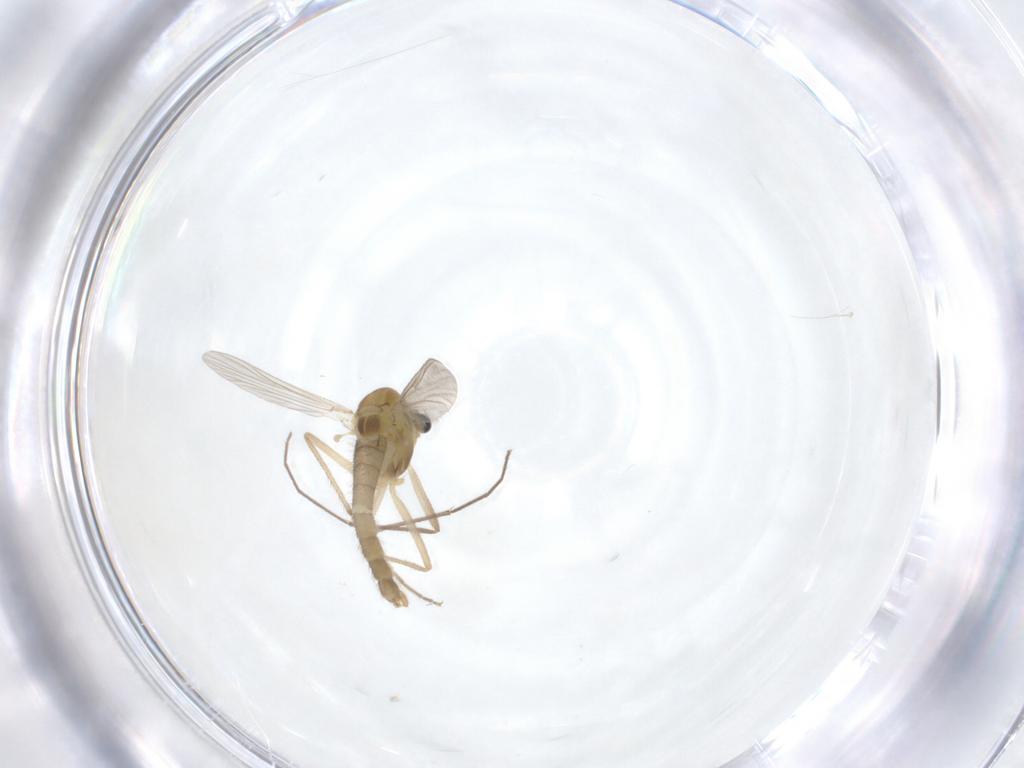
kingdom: Animalia
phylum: Arthropoda
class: Insecta
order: Diptera
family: Chironomidae
